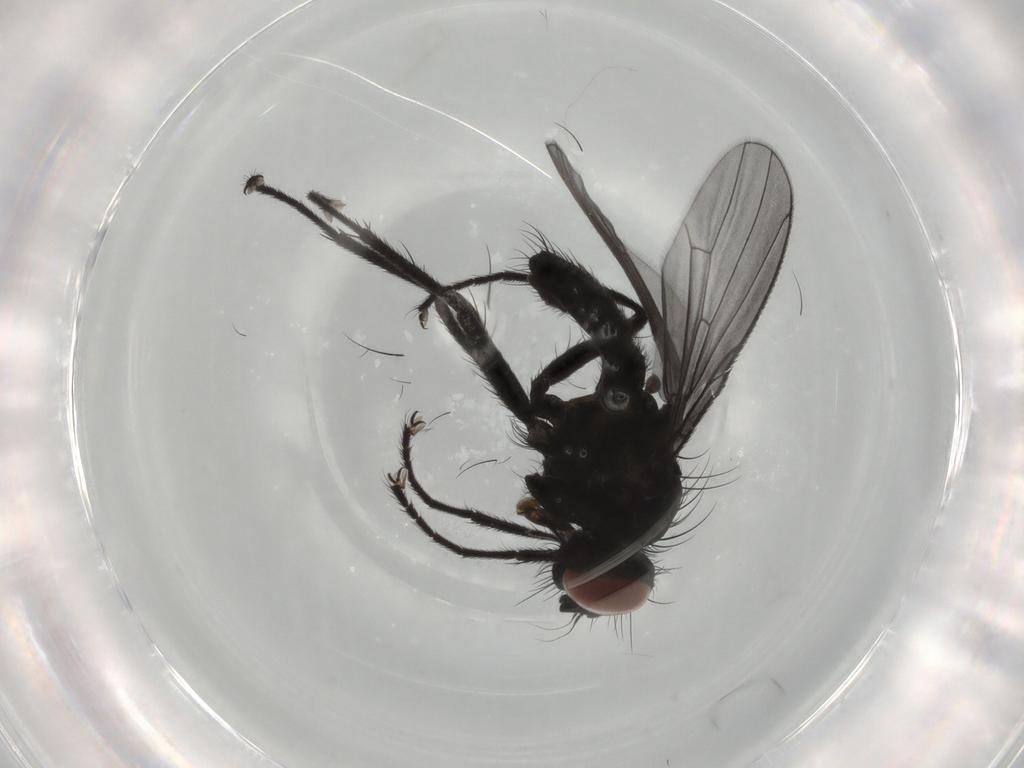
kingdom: Animalia
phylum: Arthropoda
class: Insecta
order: Diptera
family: Muscidae
